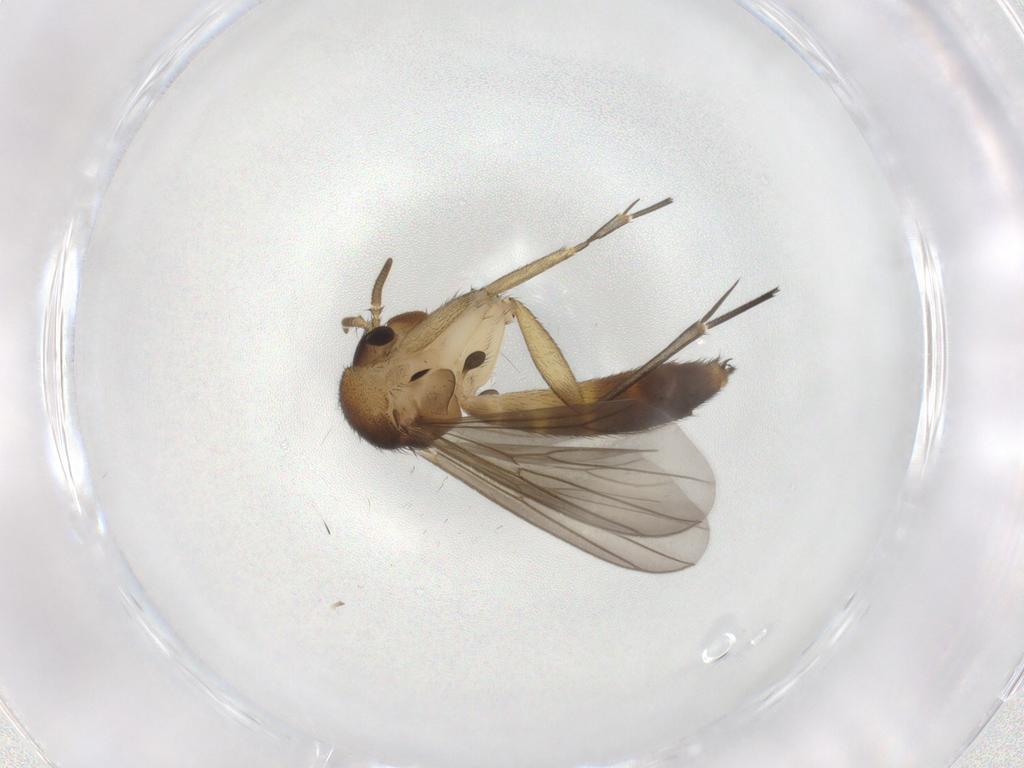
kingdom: Animalia
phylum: Arthropoda
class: Insecta
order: Diptera
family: Mycetophilidae
